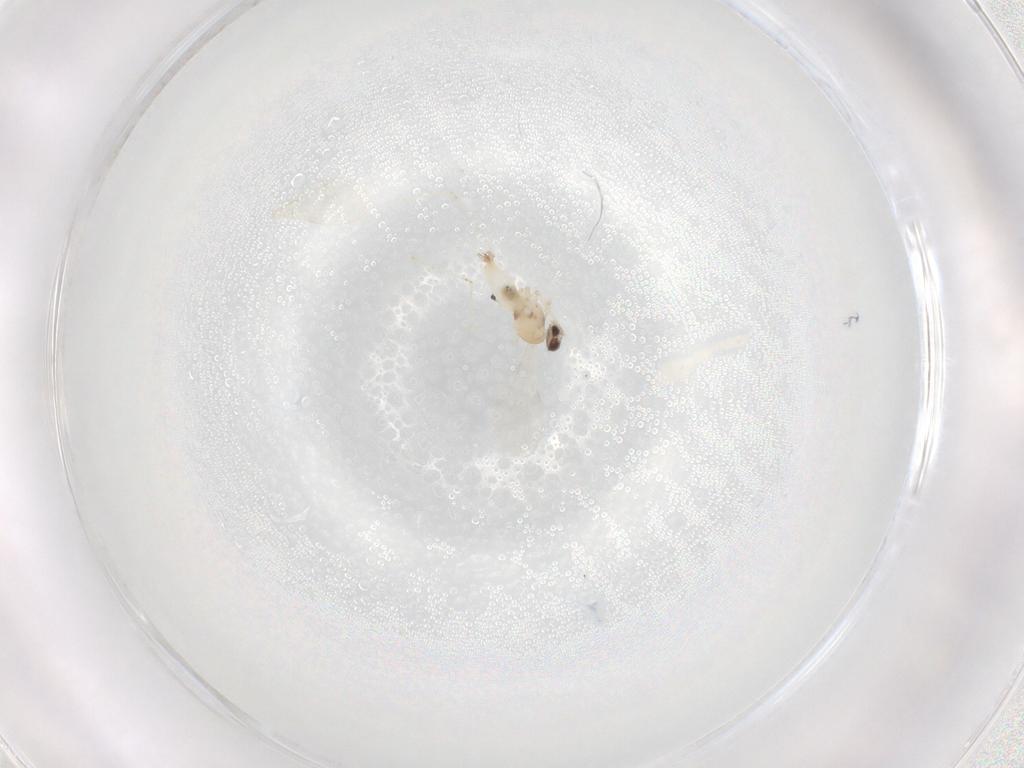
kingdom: Animalia
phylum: Arthropoda
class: Insecta
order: Diptera
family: Cecidomyiidae
